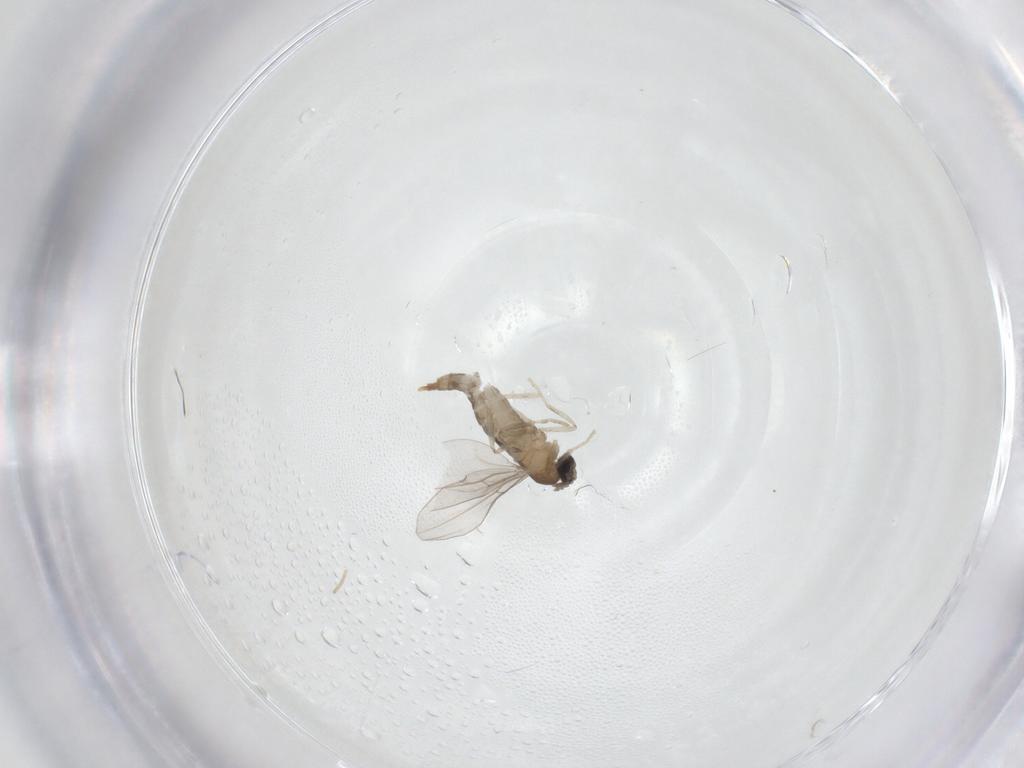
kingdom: Animalia
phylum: Arthropoda
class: Insecta
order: Diptera
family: Cecidomyiidae
